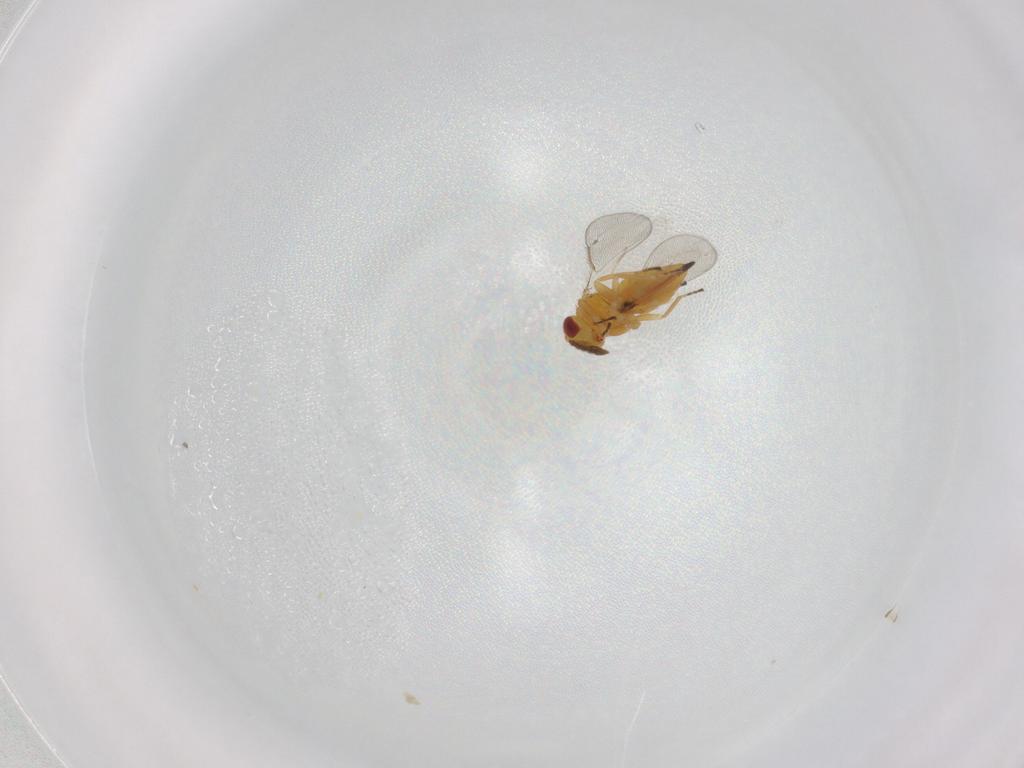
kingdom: Animalia
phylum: Arthropoda
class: Insecta
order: Hymenoptera
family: Eulophidae
